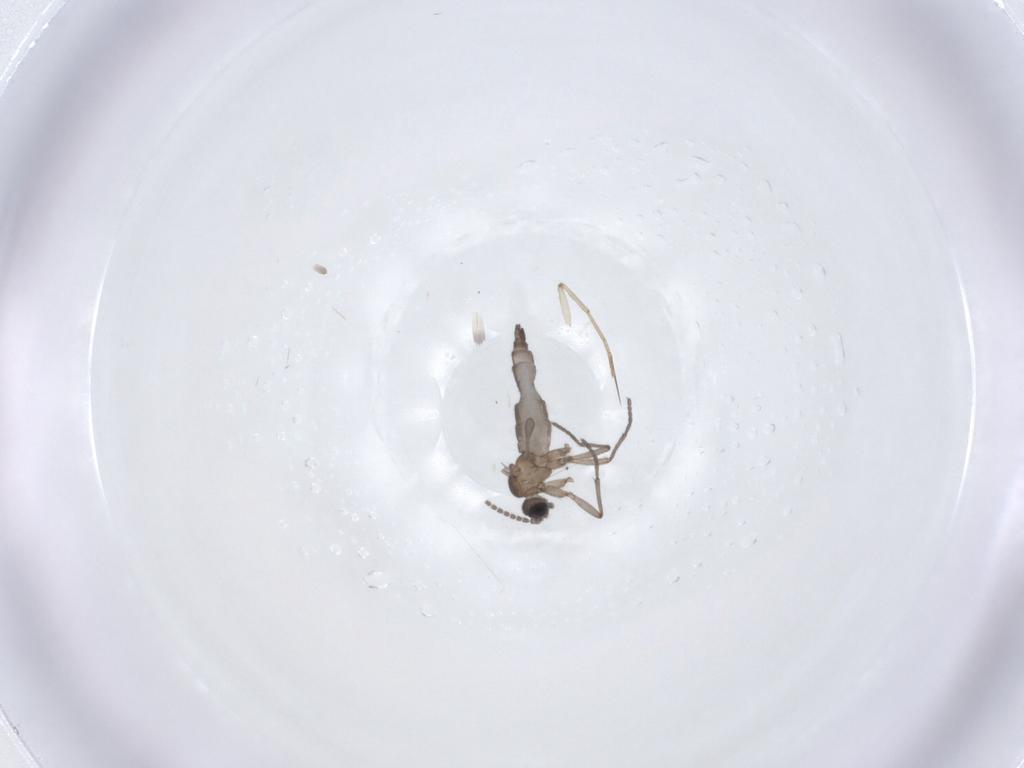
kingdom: Animalia
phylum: Arthropoda
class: Insecta
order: Diptera
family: Sciaridae
